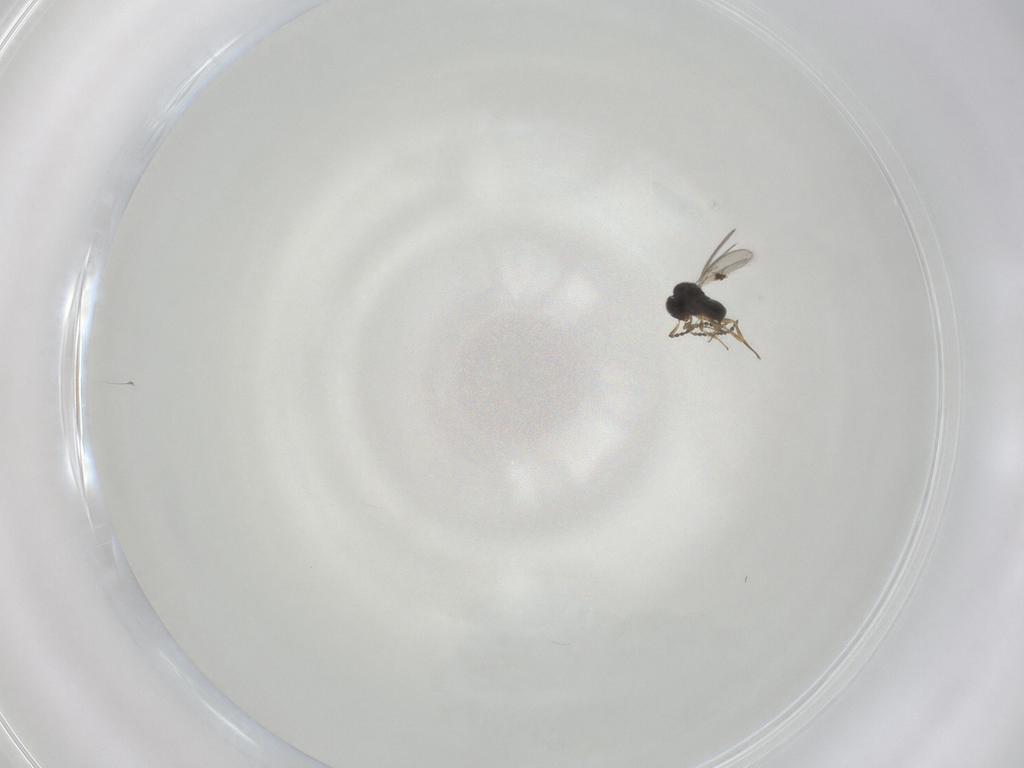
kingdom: Animalia
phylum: Arthropoda
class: Insecta
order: Hymenoptera
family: Scelionidae
